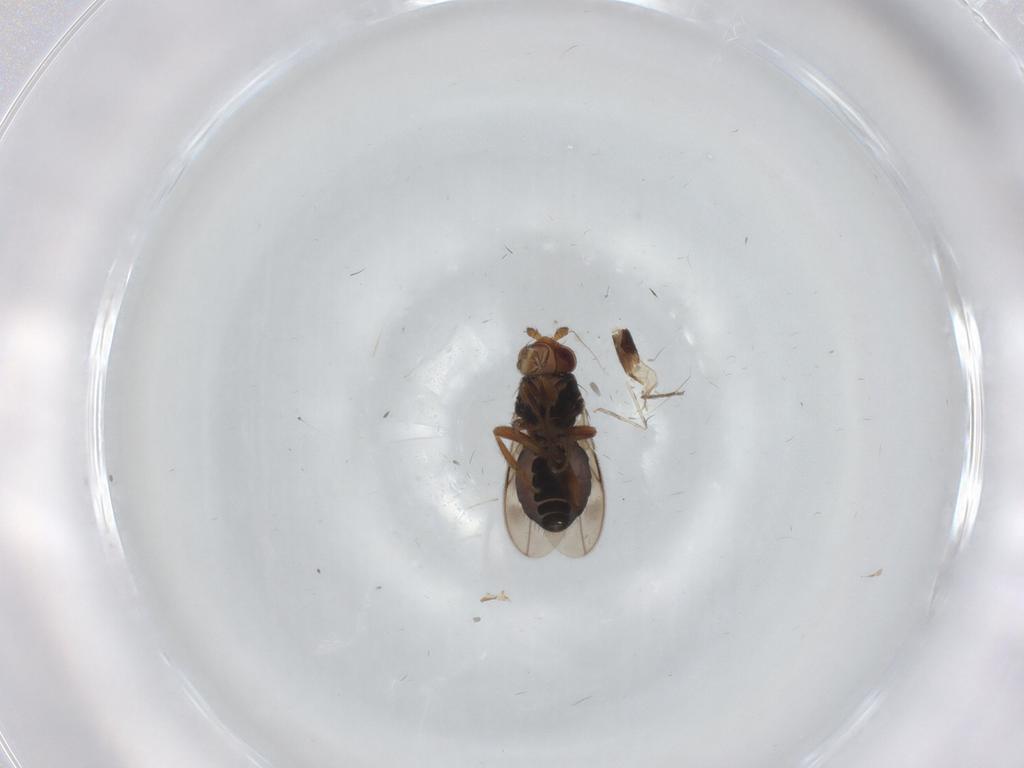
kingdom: Animalia
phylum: Arthropoda
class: Insecta
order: Diptera
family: Sphaeroceridae
